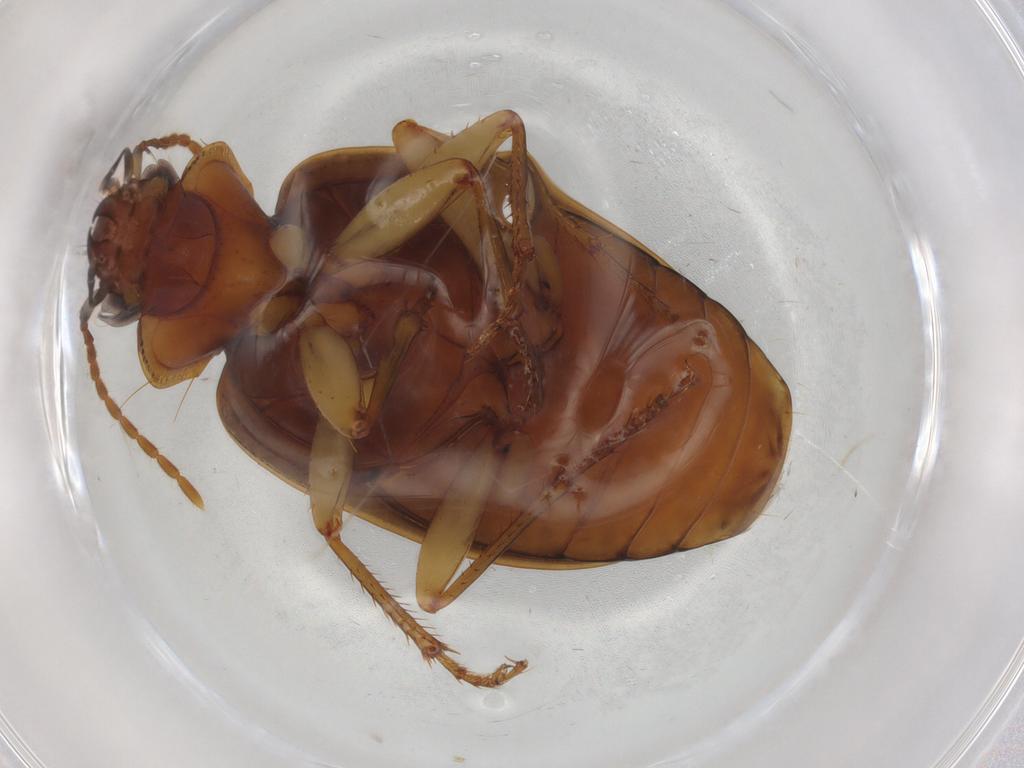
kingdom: Animalia
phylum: Arthropoda
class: Insecta
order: Coleoptera
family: Carabidae
